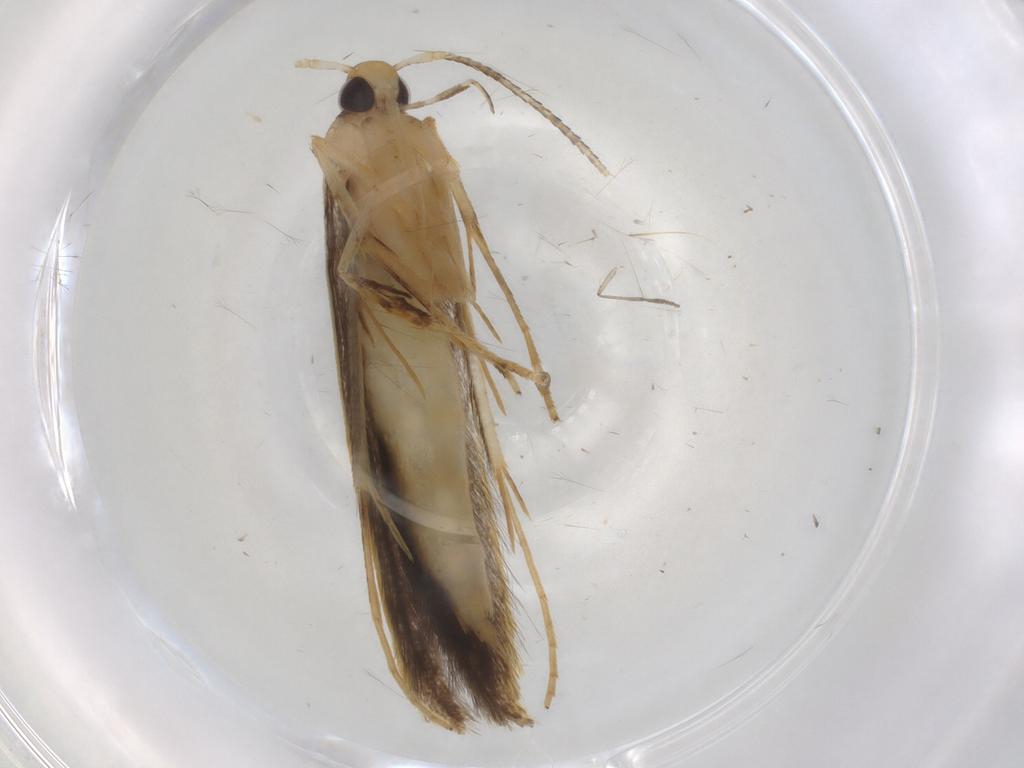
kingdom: Animalia
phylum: Arthropoda
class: Insecta
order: Lepidoptera
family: Pterolonchidae
